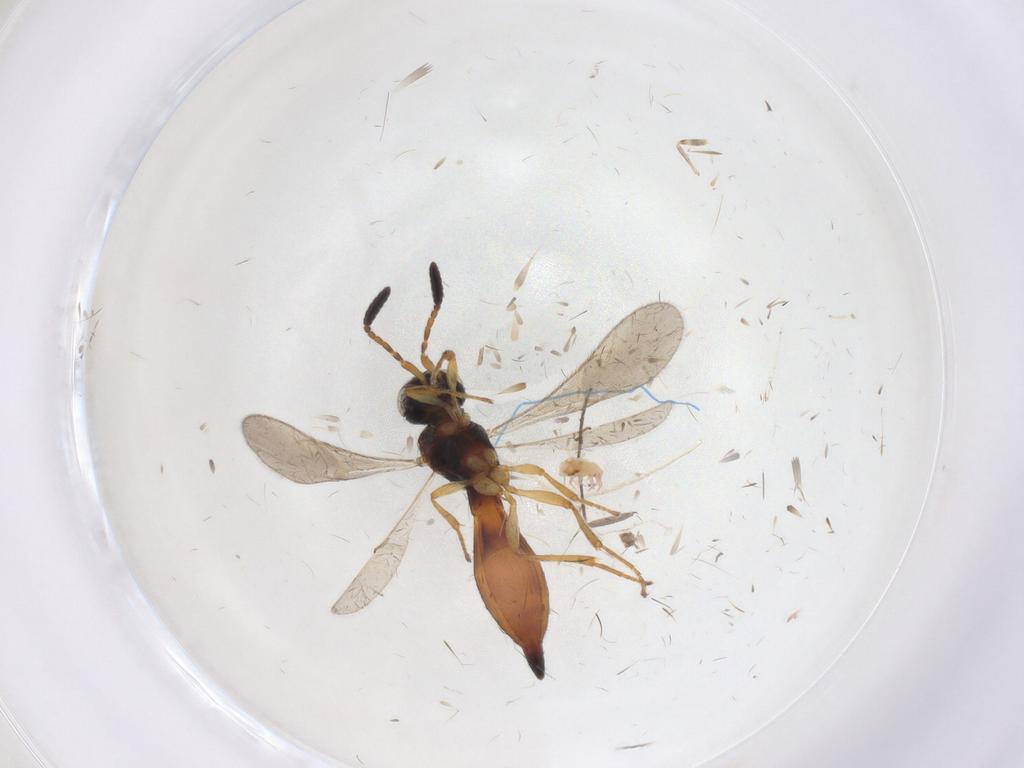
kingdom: Animalia
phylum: Arthropoda
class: Insecta
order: Hymenoptera
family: Scelionidae
